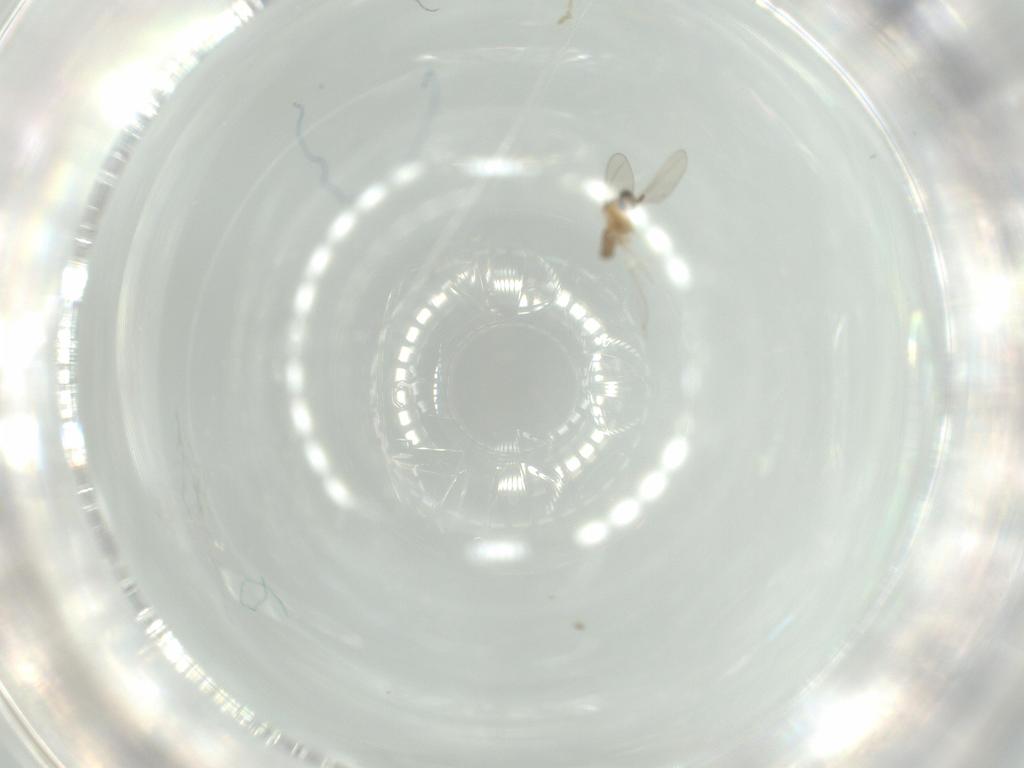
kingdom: Animalia
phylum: Arthropoda
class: Insecta
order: Diptera
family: Cecidomyiidae
